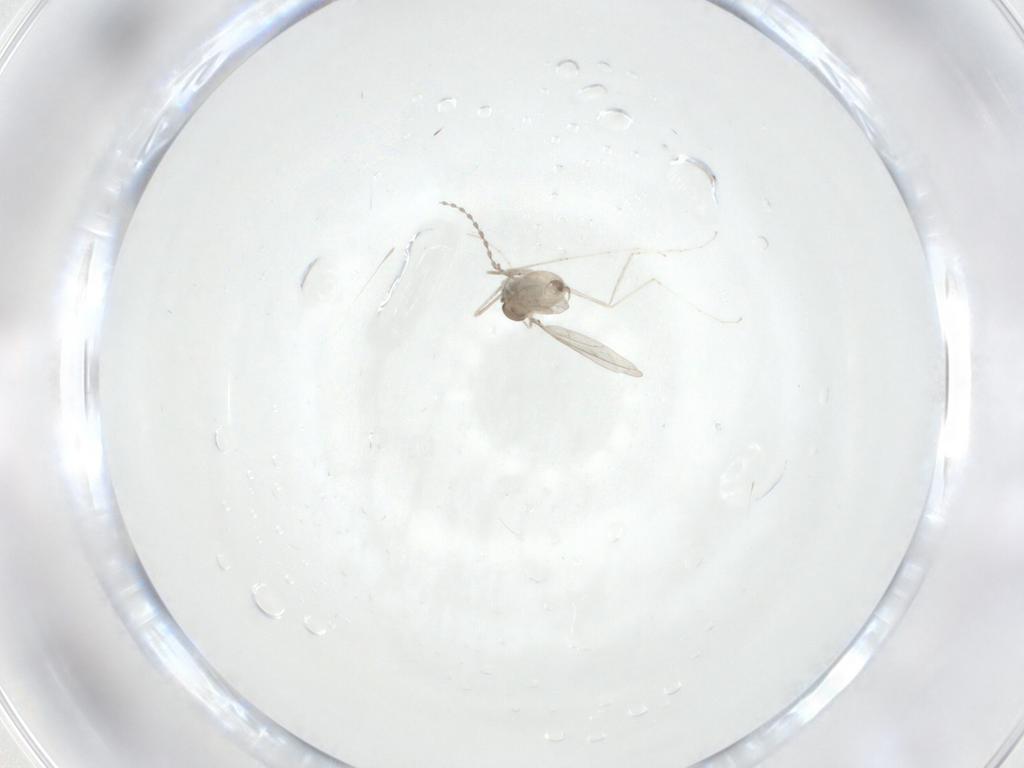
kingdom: Animalia
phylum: Arthropoda
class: Insecta
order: Diptera
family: Cecidomyiidae
